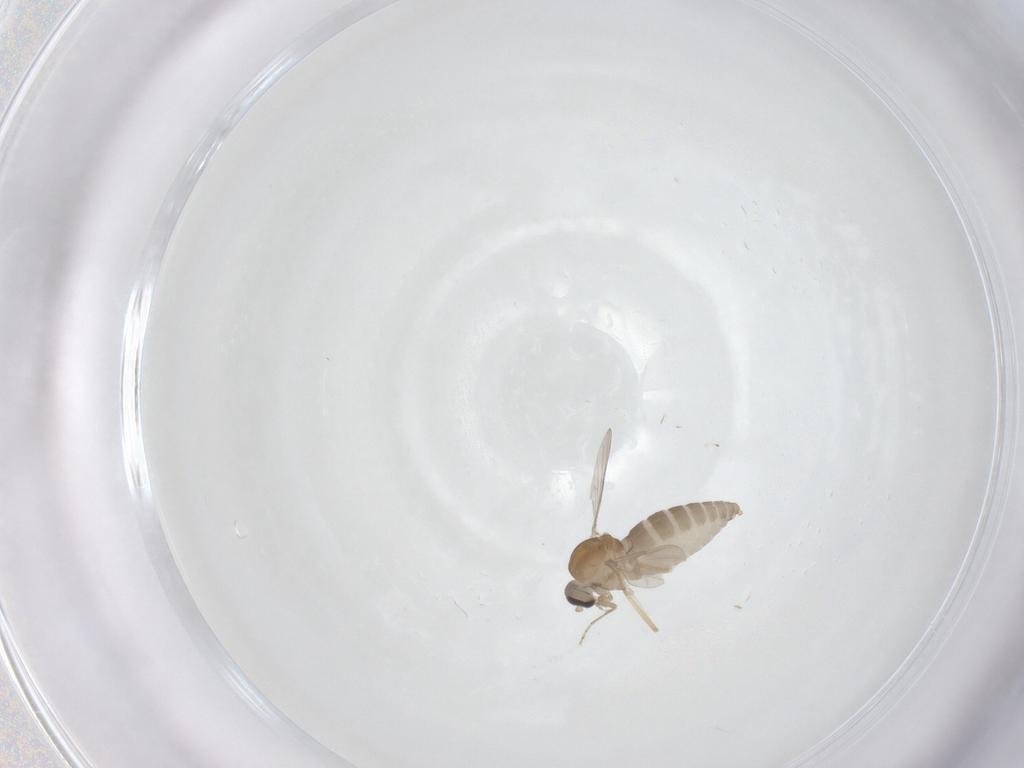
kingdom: Animalia
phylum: Arthropoda
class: Insecta
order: Diptera
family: Ceratopogonidae
